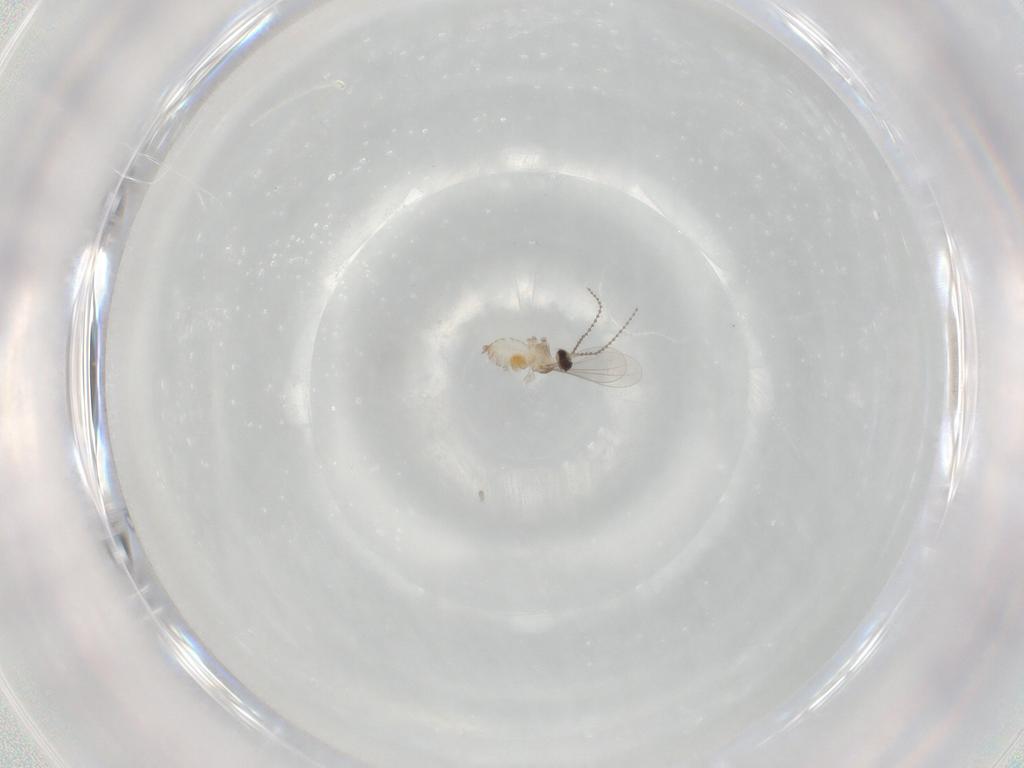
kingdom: Animalia
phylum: Arthropoda
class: Insecta
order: Diptera
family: Cecidomyiidae
